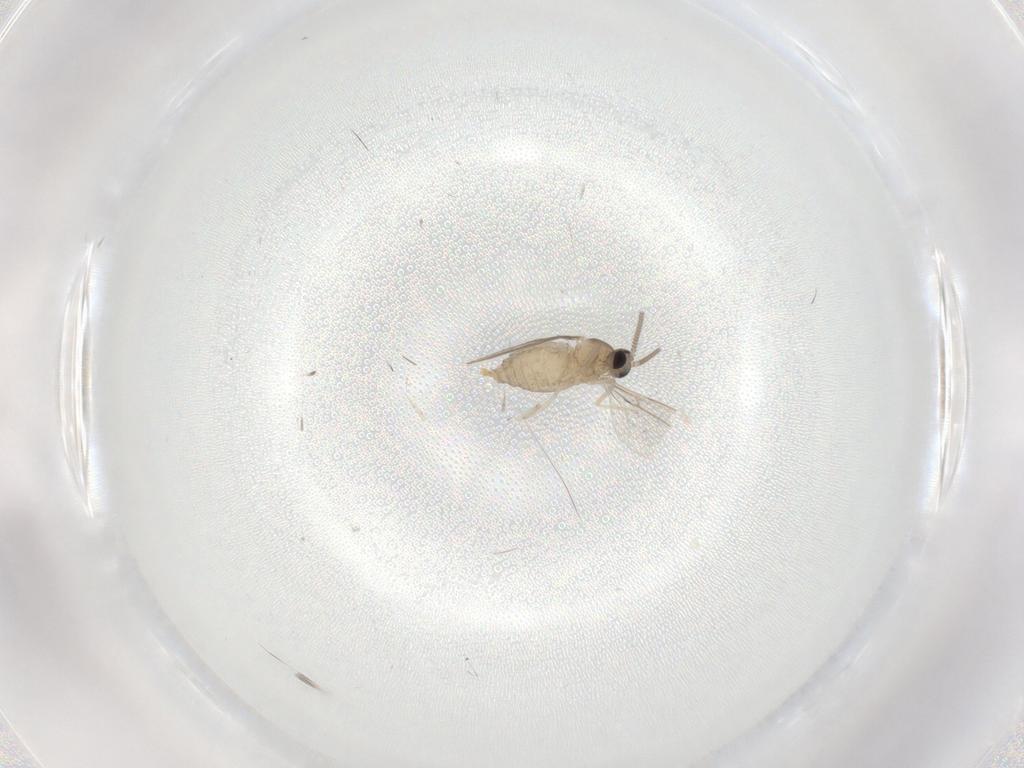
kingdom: Animalia
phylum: Arthropoda
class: Insecta
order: Diptera
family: Cecidomyiidae
